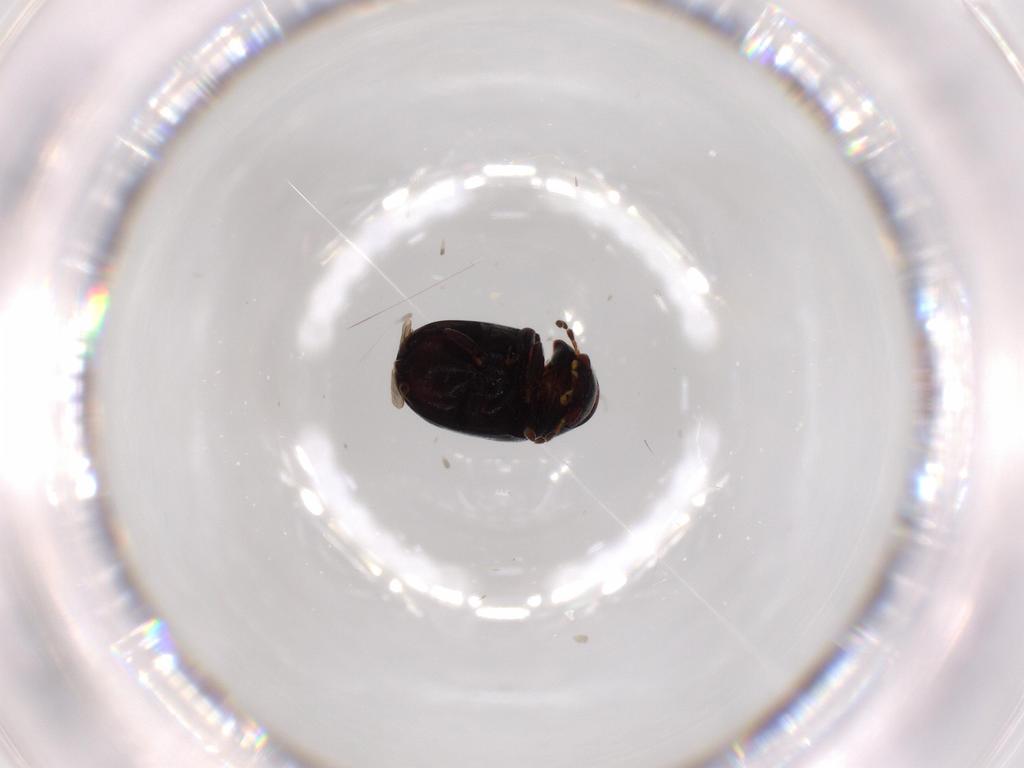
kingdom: Animalia
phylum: Arthropoda
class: Insecta
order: Coleoptera
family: Ptinidae
